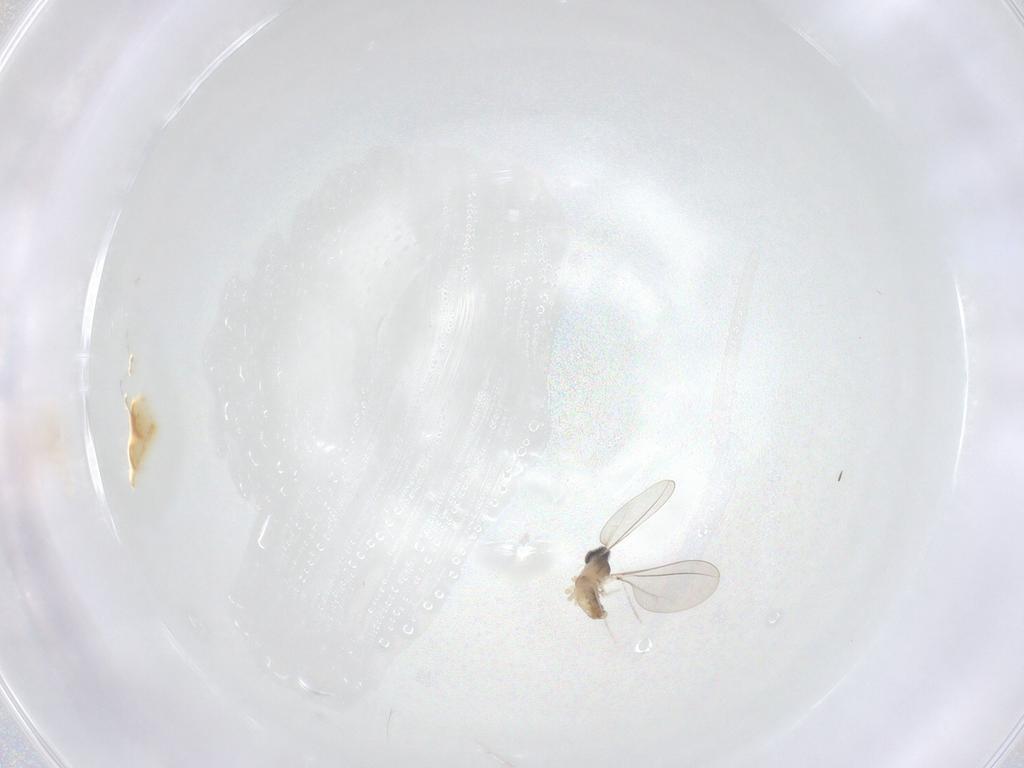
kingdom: Animalia
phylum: Arthropoda
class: Insecta
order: Diptera
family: Cecidomyiidae
